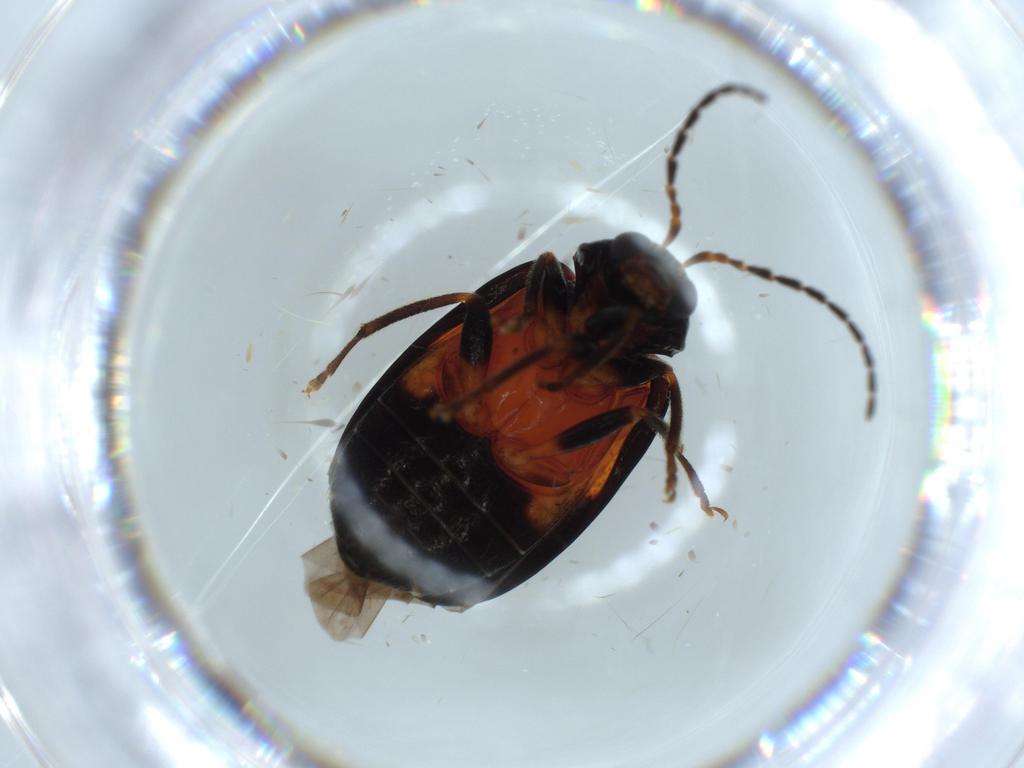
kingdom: Animalia
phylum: Arthropoda
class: Insecta
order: Coleoptera
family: Chrysomelidae
